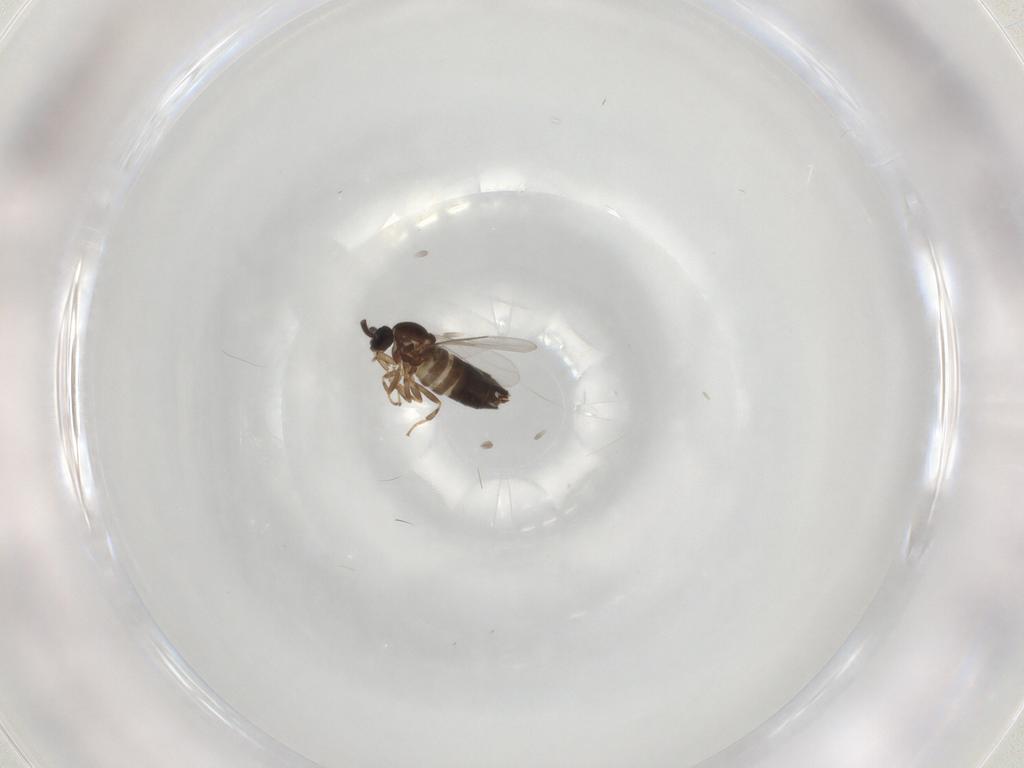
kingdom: Animalia
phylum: Arthropoda
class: Insecta
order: Diptera
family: Scatopsidae
